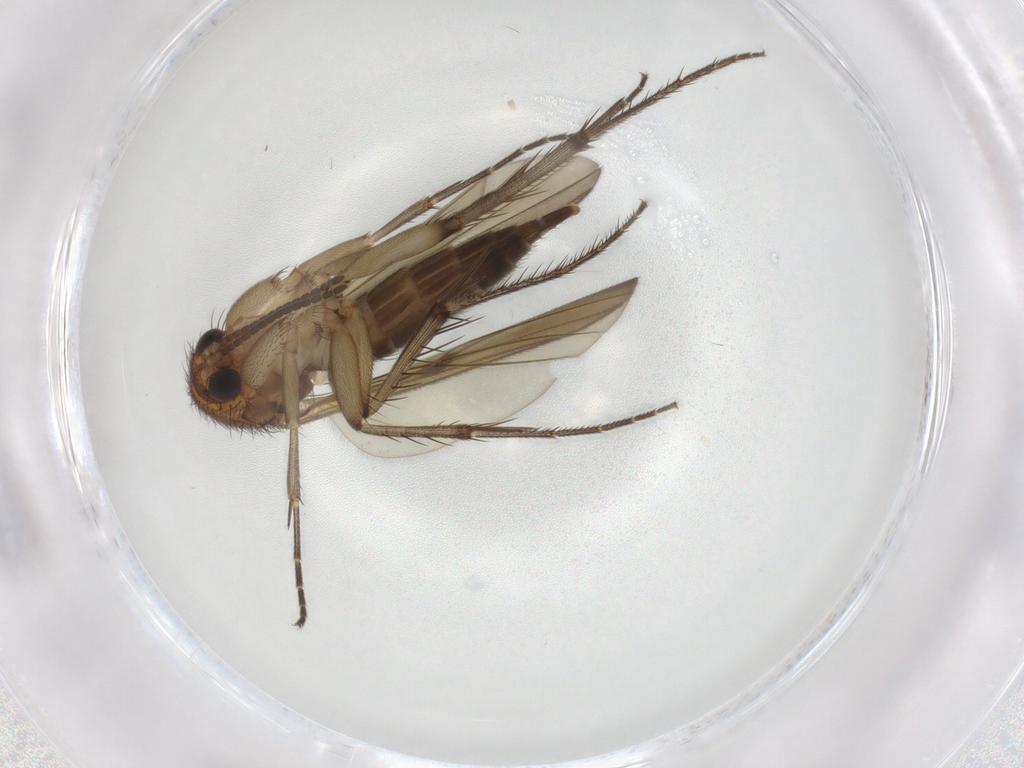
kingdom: Animalia
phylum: Arthropoda
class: Insecta
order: Diptera
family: Mycetophilidae
